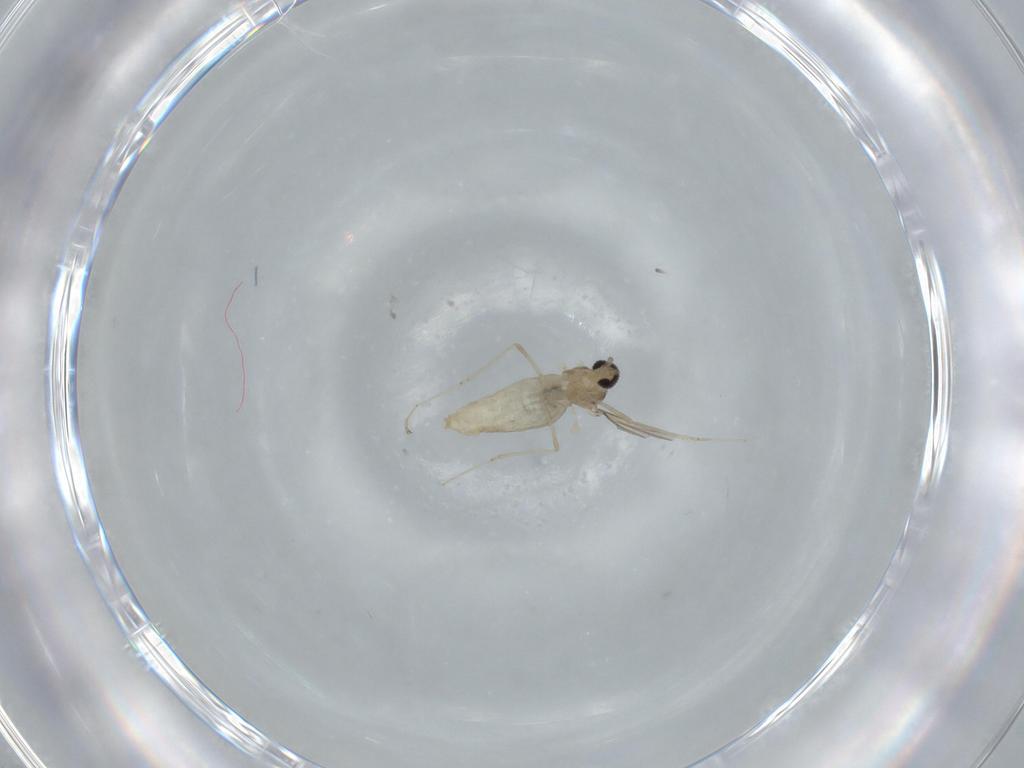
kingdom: Animalia
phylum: Arthropoda
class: Insecta
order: Diptera
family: Cecidomyiidae
